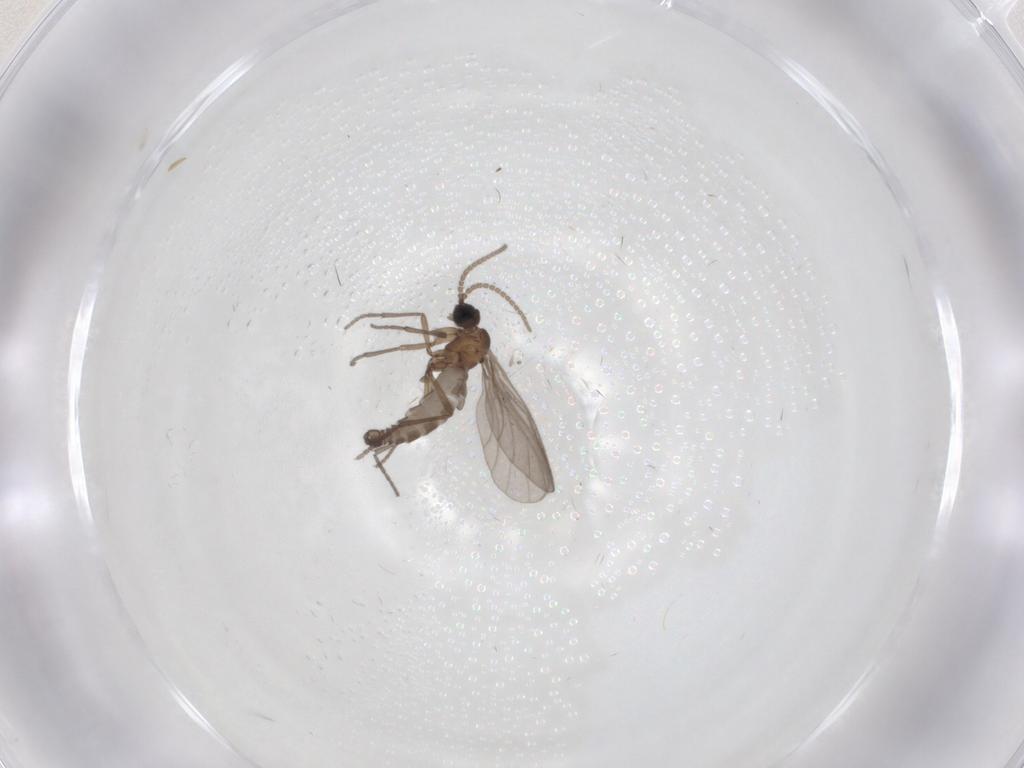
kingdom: Animalia
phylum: Arthropoda
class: Insecta
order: Diptera
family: Sciaridae
